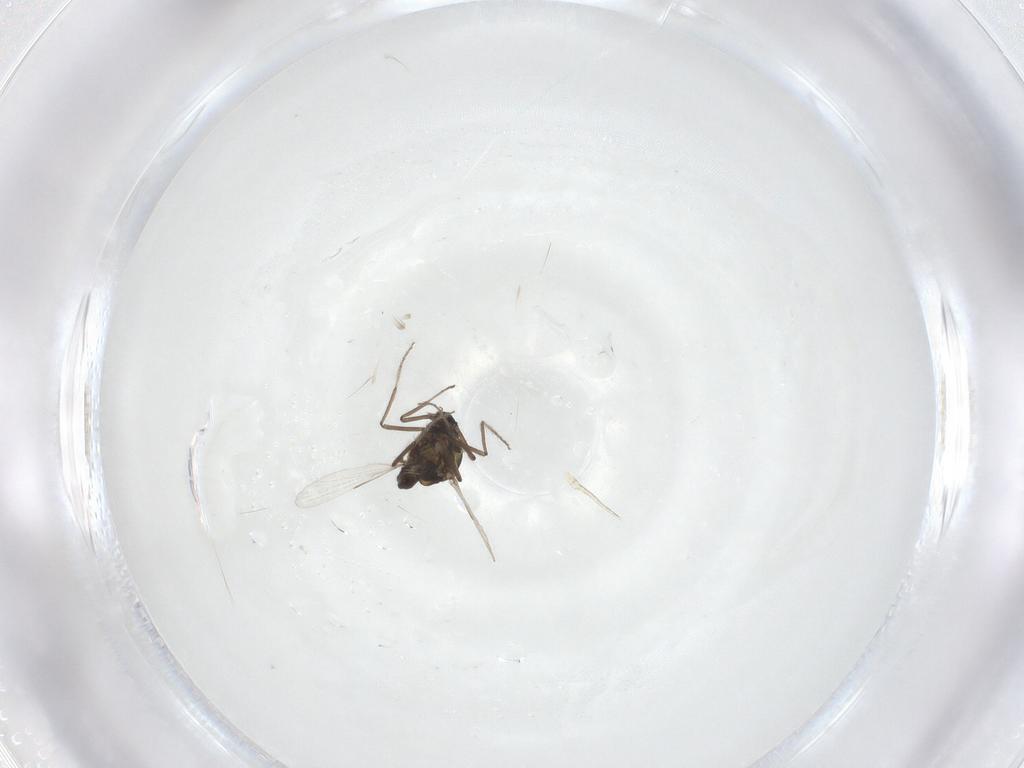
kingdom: Animalia
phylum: Arthropoda
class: Insecta
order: Diptera
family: Ceratopogonidae
